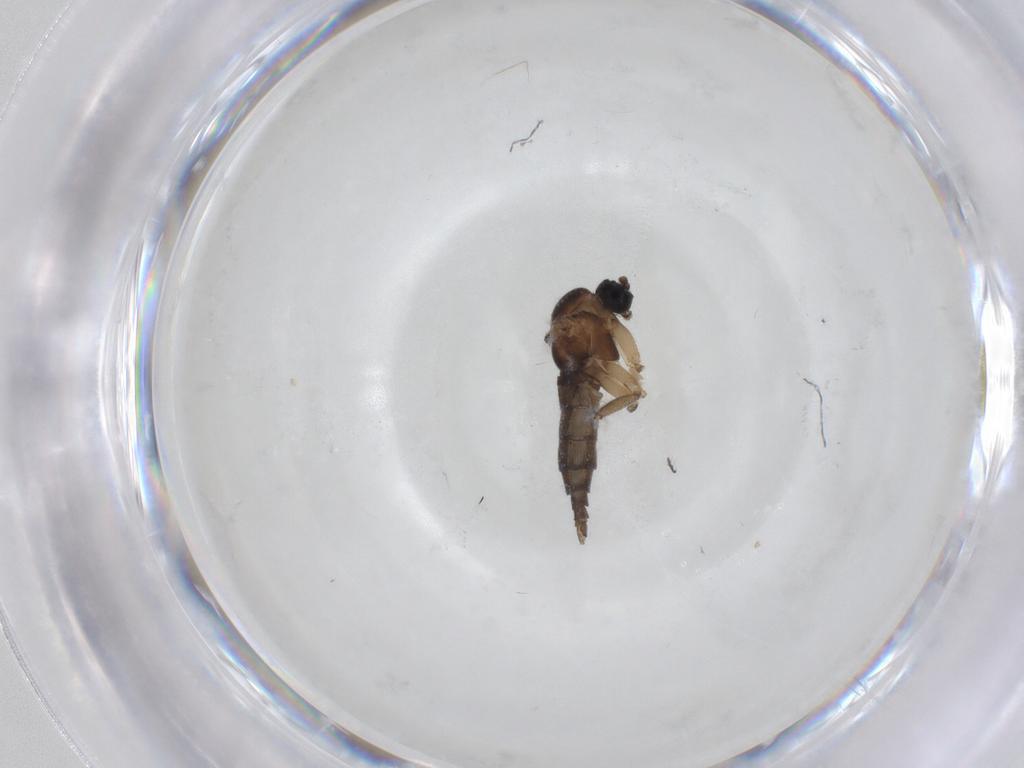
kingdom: Animalia
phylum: Arthropoda
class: Insecta
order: Diptera
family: Sciaridae
